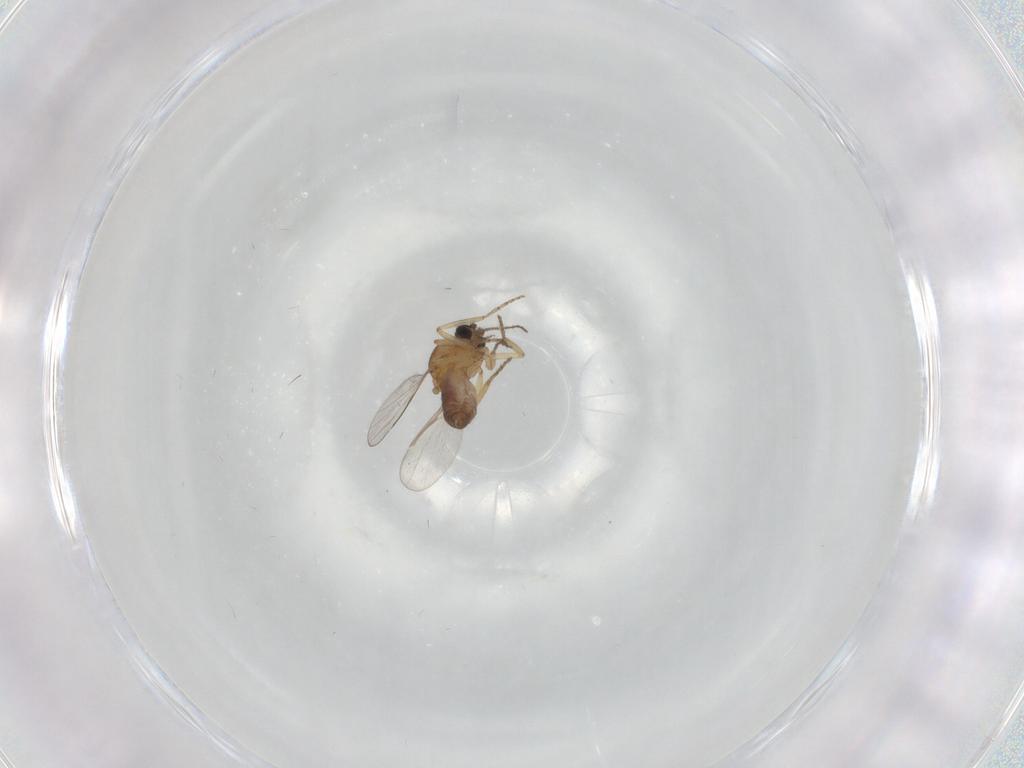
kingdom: Animalia
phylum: Arthropoda
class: Insecta
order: Diptera
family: Ceratopogonidae
